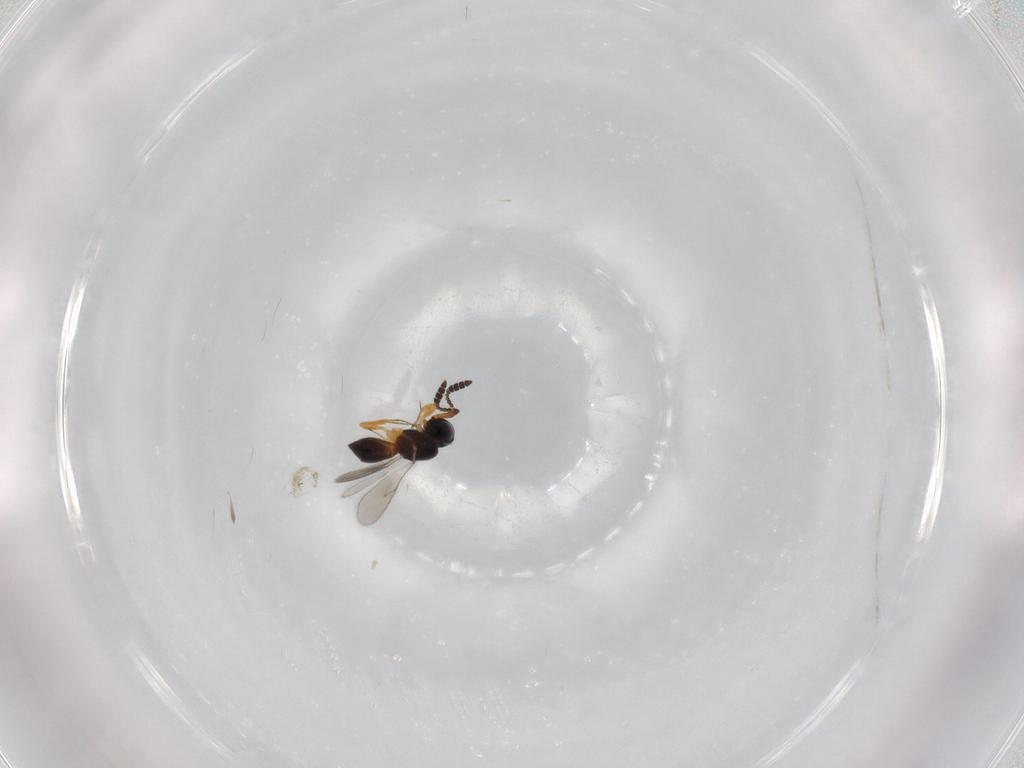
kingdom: Animalia
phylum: Arthropoda
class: Insecta
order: Hymenoptera
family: Scelionidae
